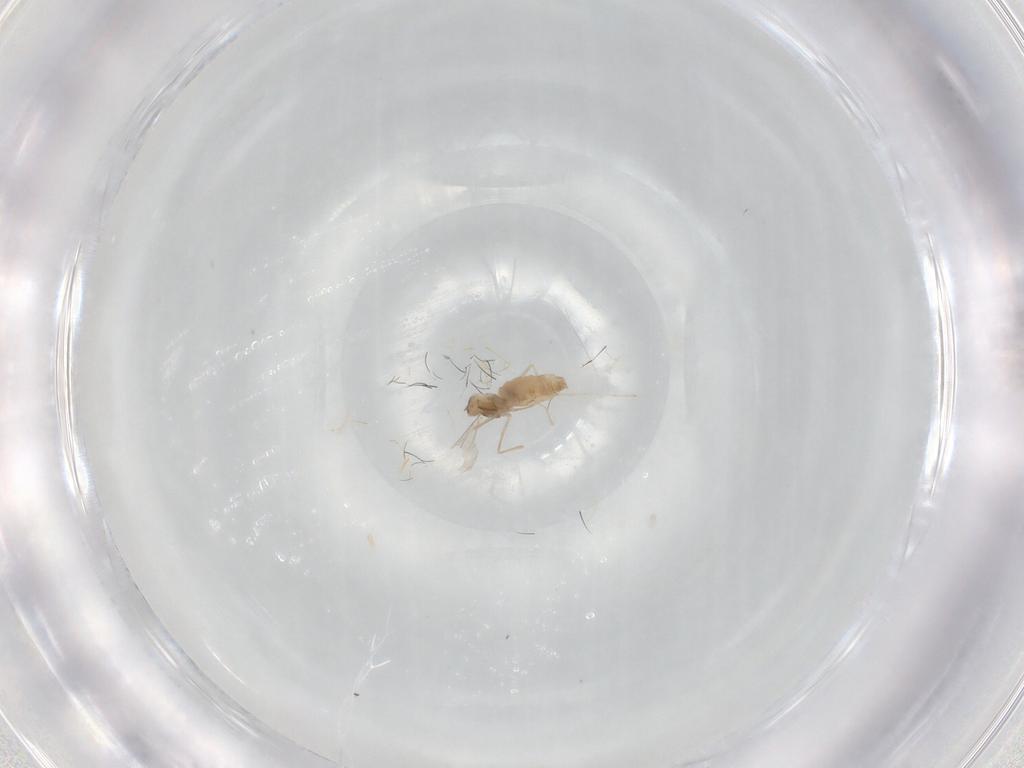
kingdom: Animalia
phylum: Arthropoda
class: Insecta
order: Diptera
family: Cecidomyiidae
